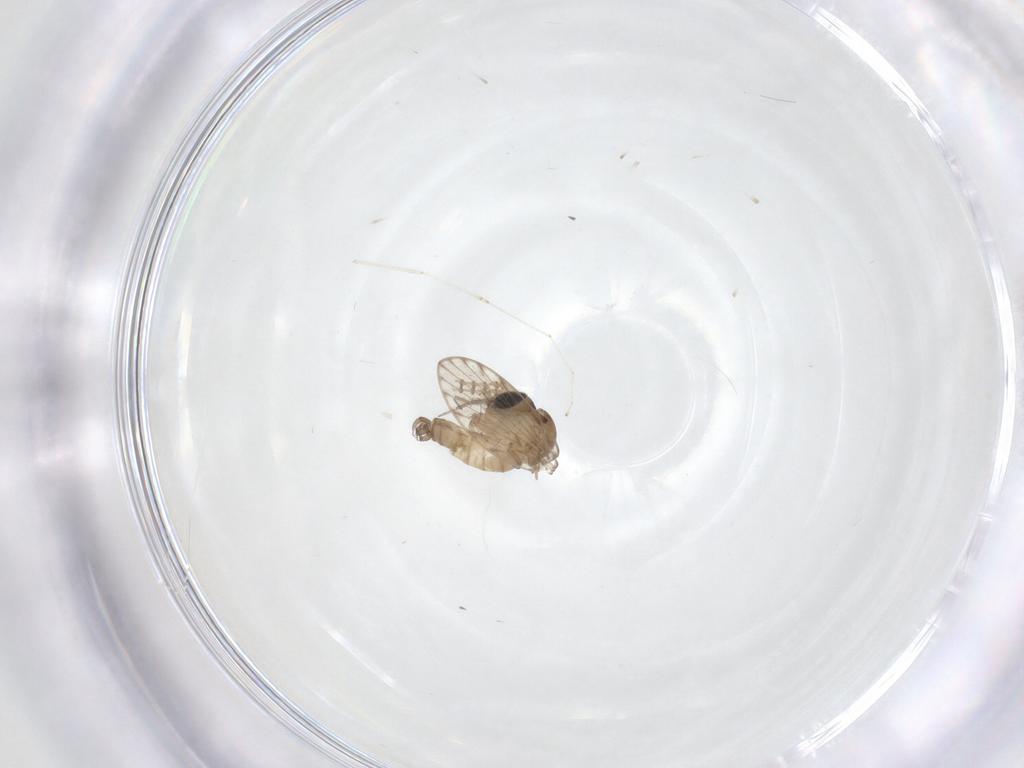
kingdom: Animalia
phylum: Arthropoda
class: Insecta
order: Diptera
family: Psychodidae
